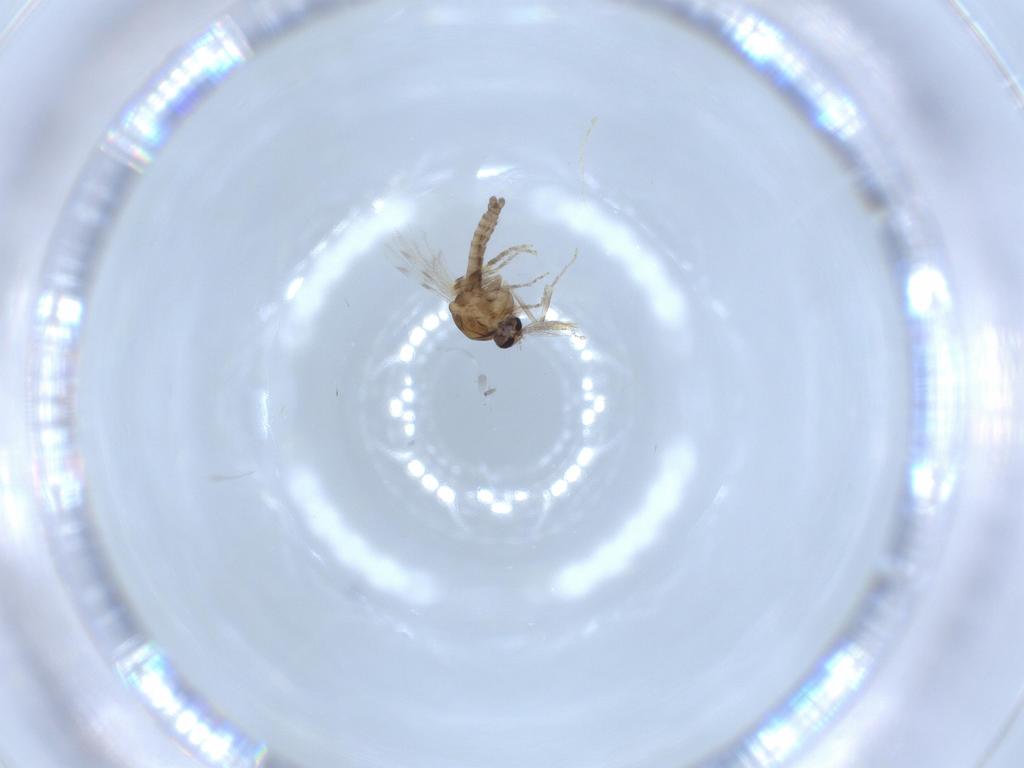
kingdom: Animalia
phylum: Arthropoda
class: Insecta
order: Diptera
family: Ceratopogonidae
